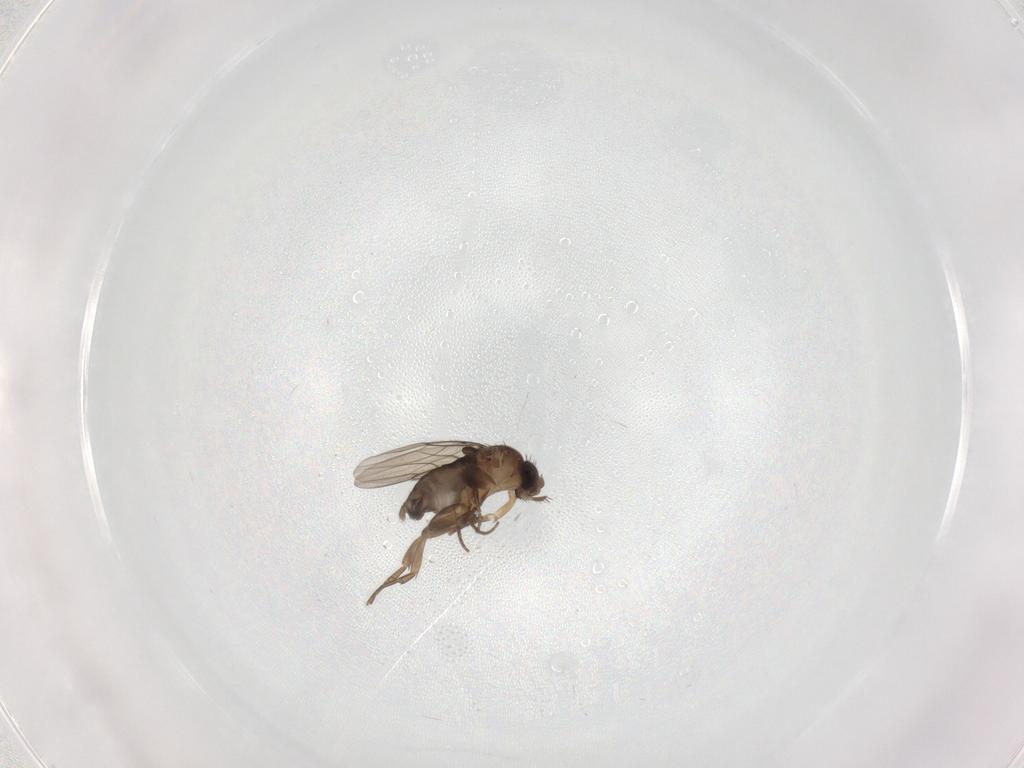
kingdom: Animalia
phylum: Arthropoda
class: Insecta
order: Diptera
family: Phoridae
